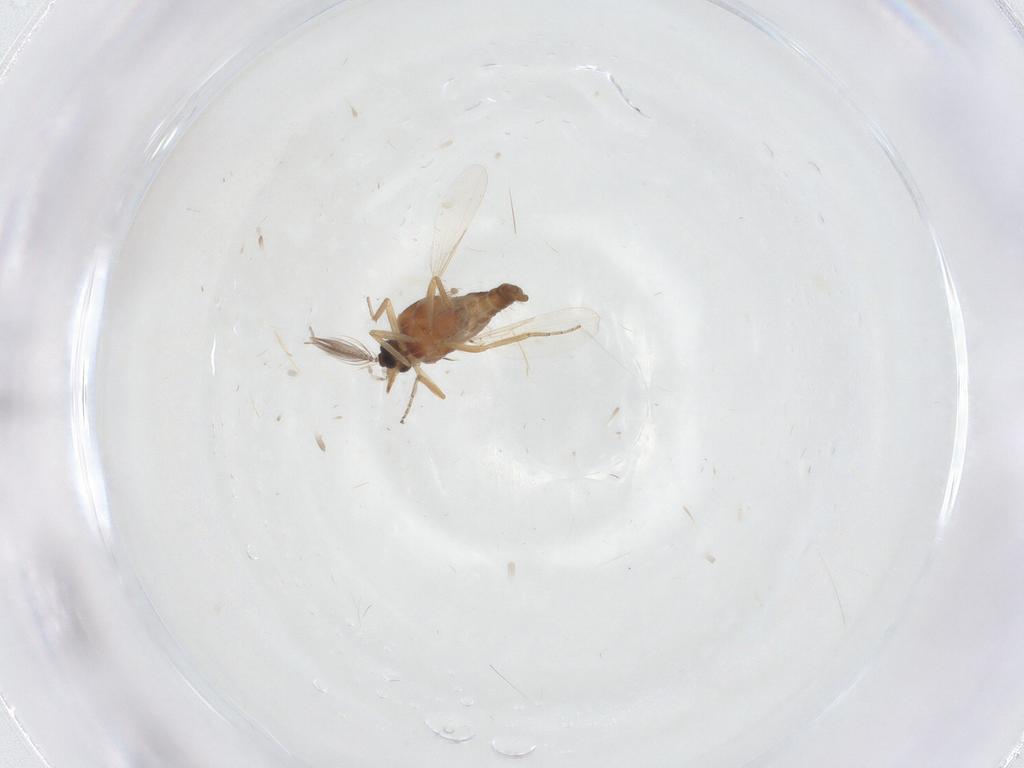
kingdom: Animalia
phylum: Arthropoda
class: Insecta
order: Diptera
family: Ceratopogonidae
